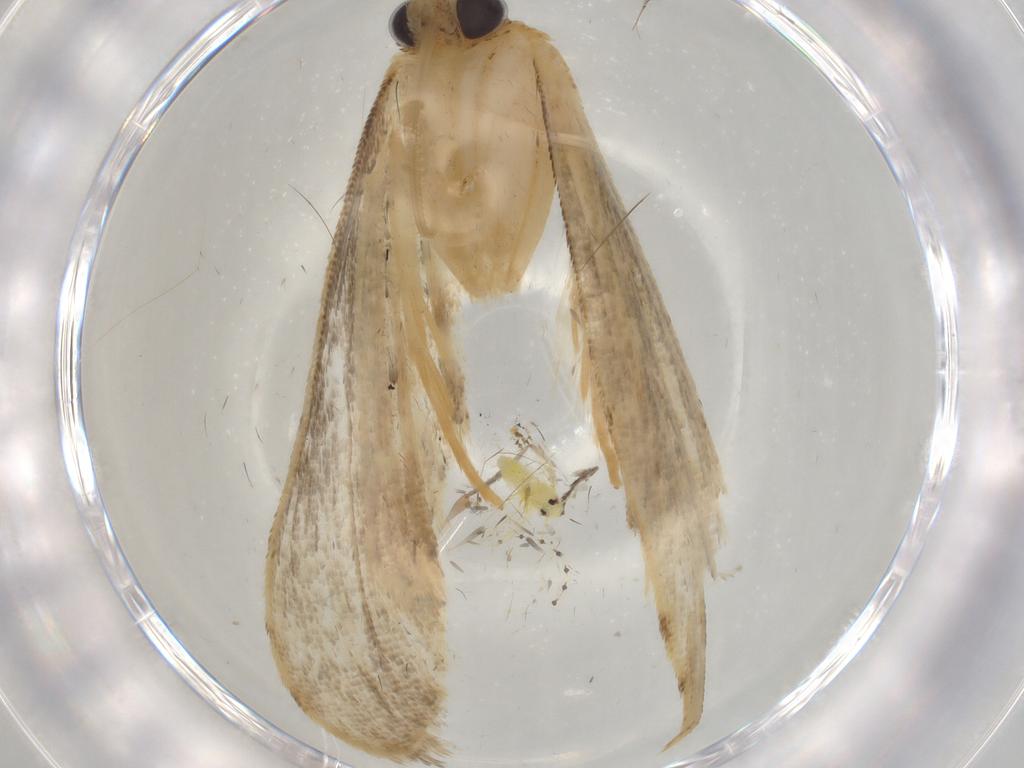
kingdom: Animalia
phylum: Arthropoda
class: Insecta
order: Lepidoptera
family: Erebidae
